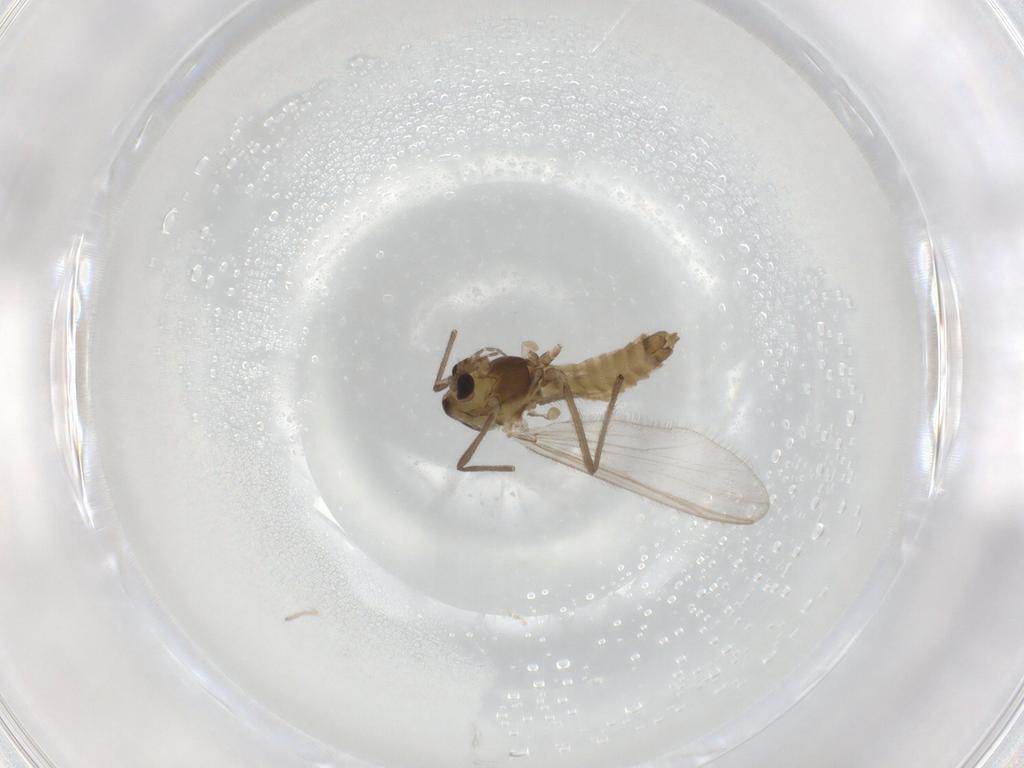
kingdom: Animalia
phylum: Arthropoda
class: Insecta
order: Diptera
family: Chironomidae
